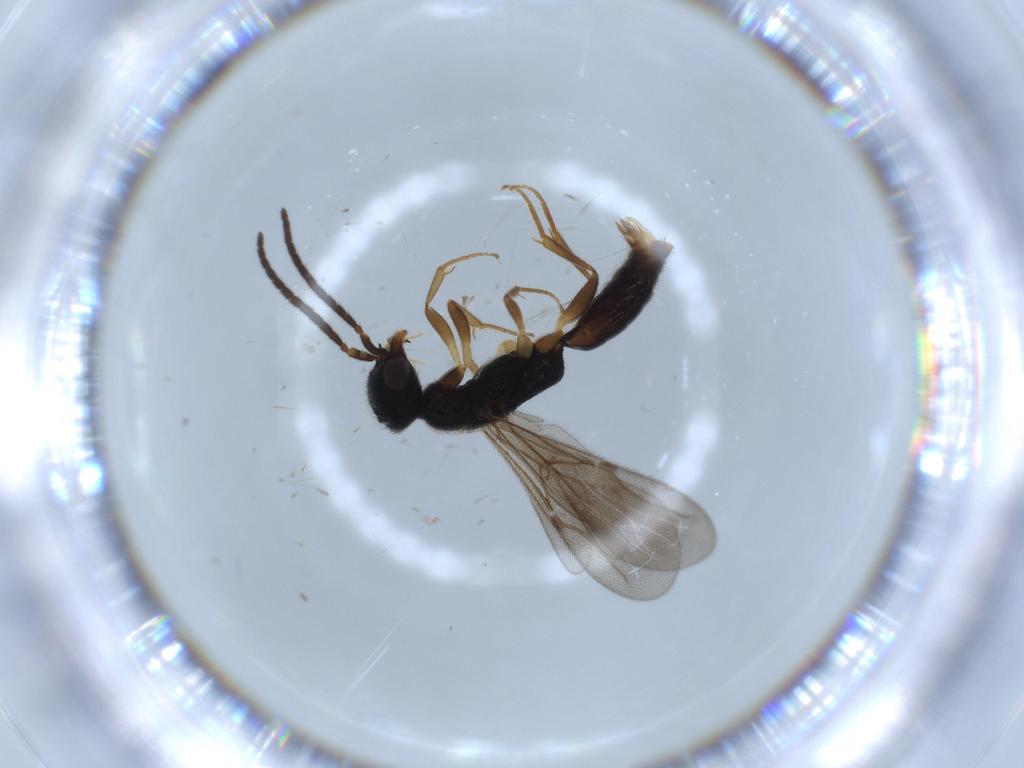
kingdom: Animalia
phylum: Arthropoda
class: Insecta
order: Hymenoptera
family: Bethylidae
